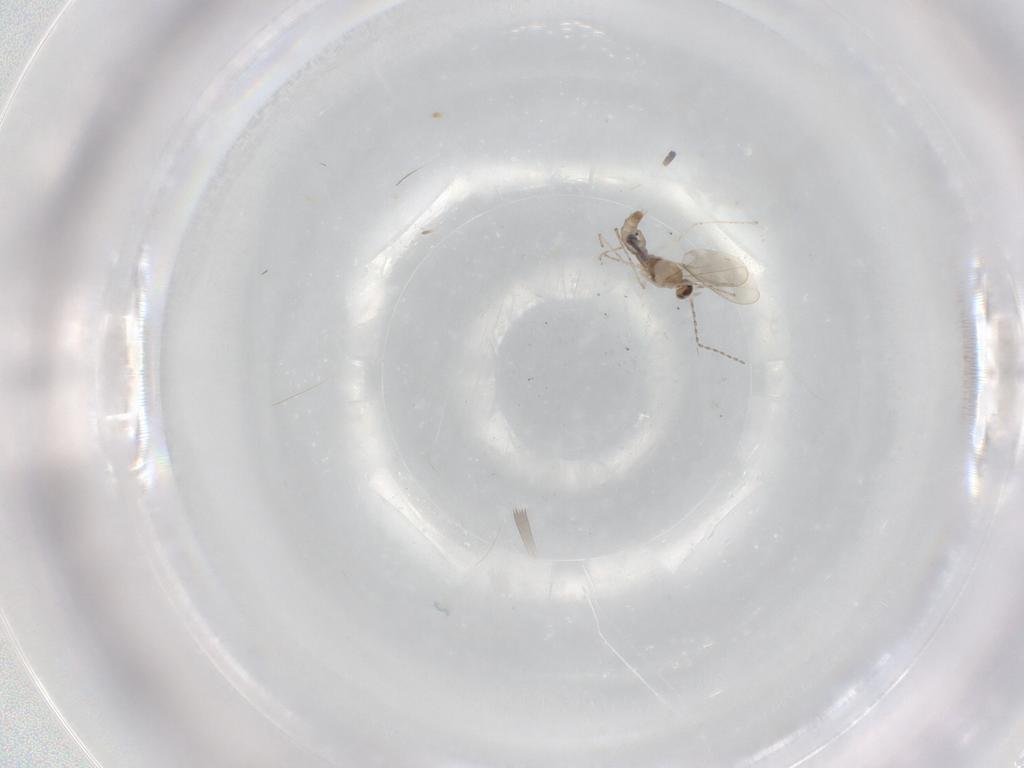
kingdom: Animalia
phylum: Arthropoda
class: Insecta
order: Diptera
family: Cecidomyiidae
